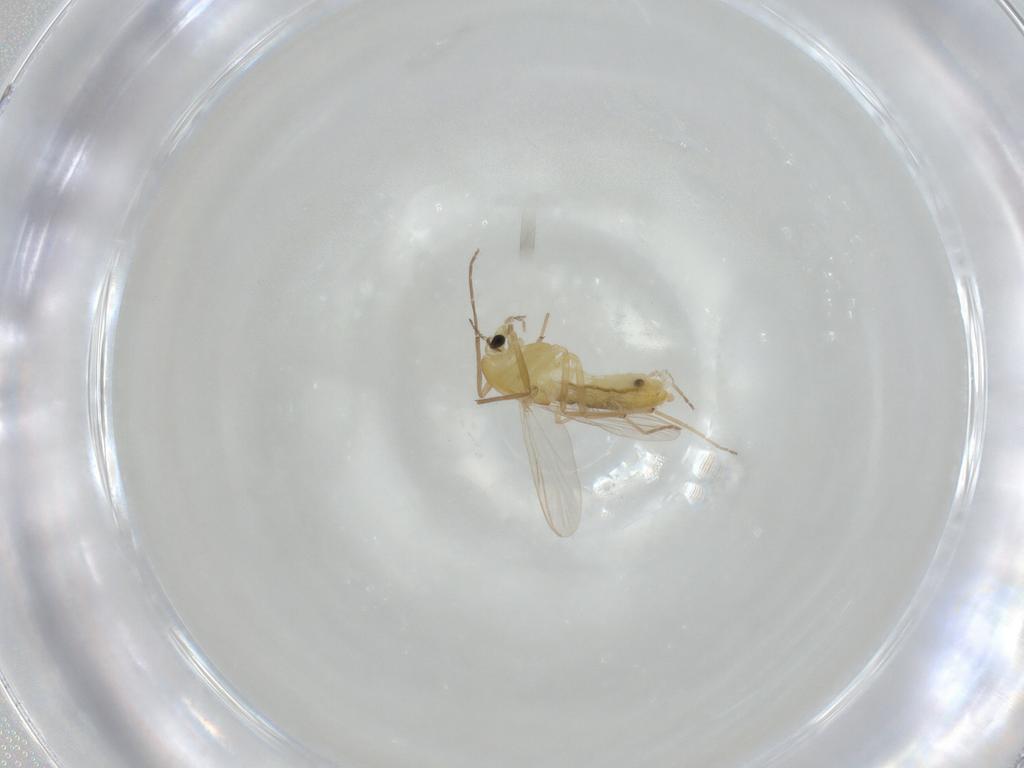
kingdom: Animalia
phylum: Arthropoda
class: Insecta
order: Diptera
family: Chironomidae
